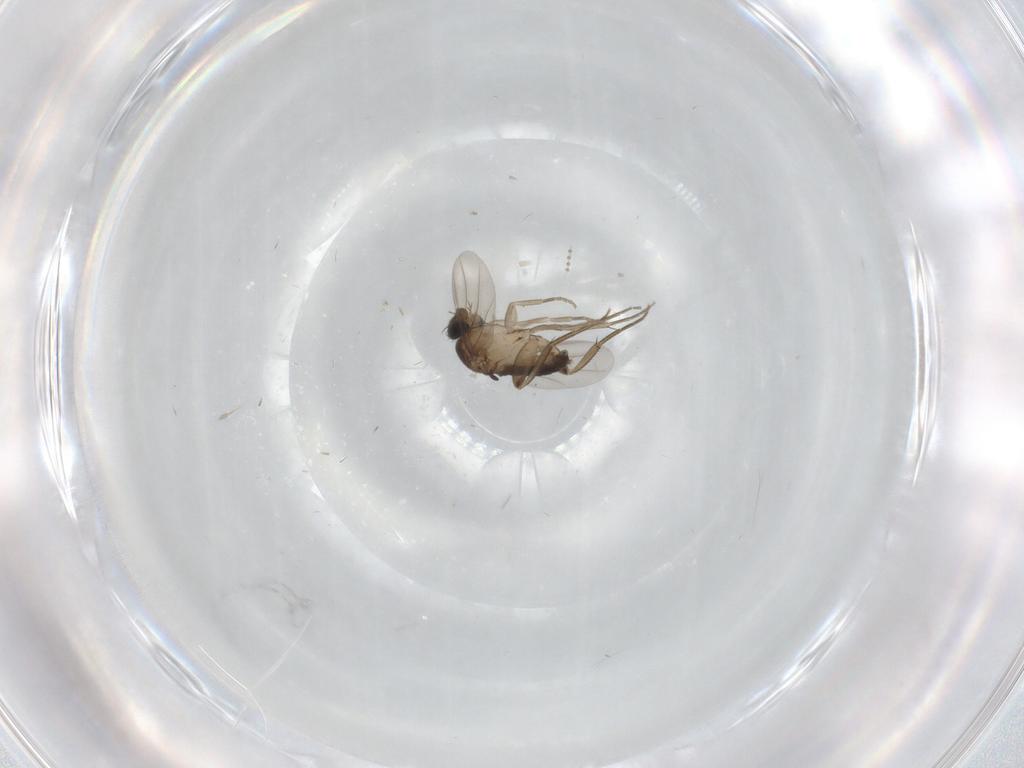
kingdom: Animalia
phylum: Arthropoda
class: Insecta
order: Diptera
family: Phoridae
